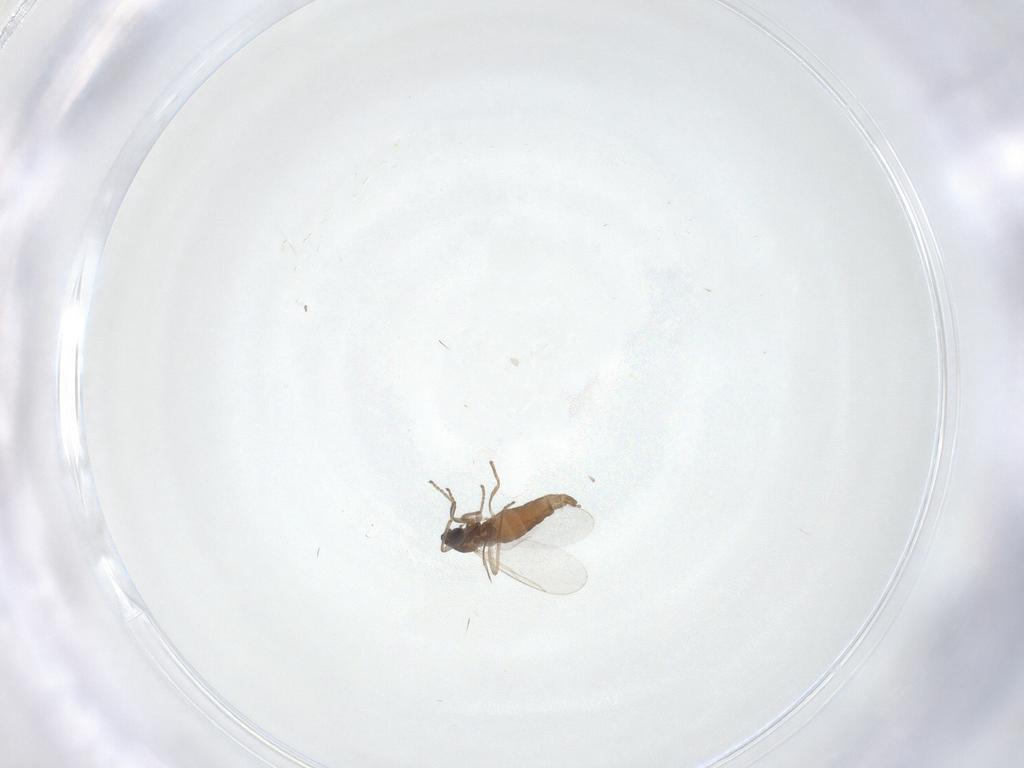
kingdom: Animalia
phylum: Arthropoda
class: Insecta
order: Diptera
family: Cecidomyiidae
